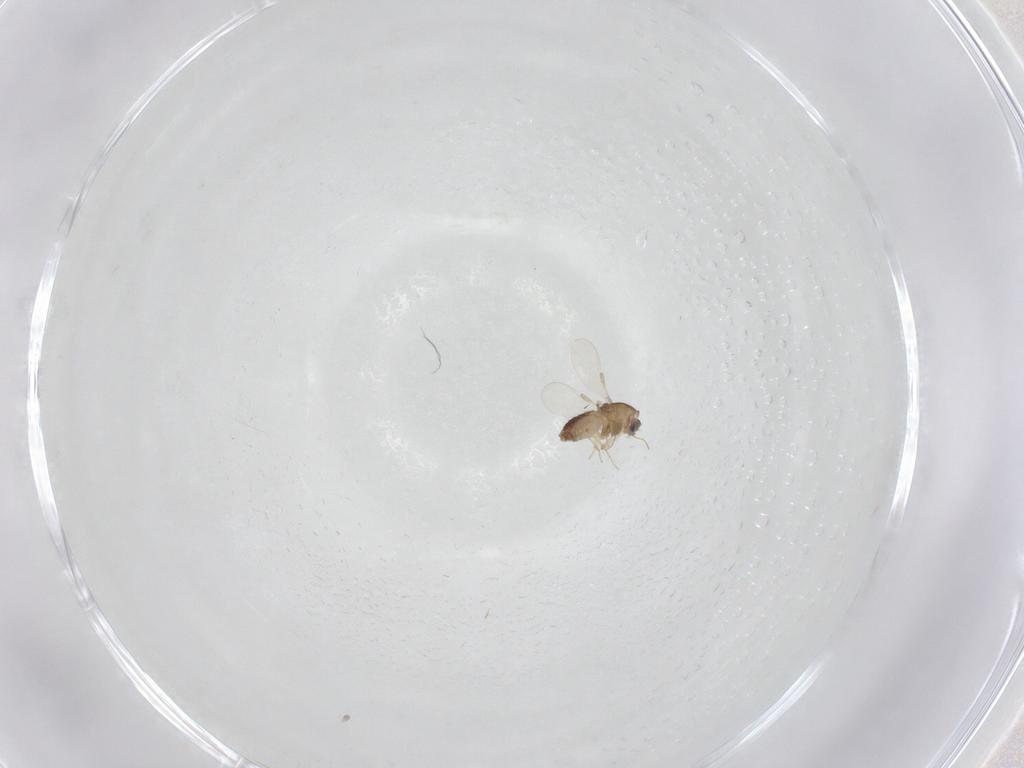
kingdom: Animalia
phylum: Arthropoda
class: Insecta
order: Diptera
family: Chironomidae
